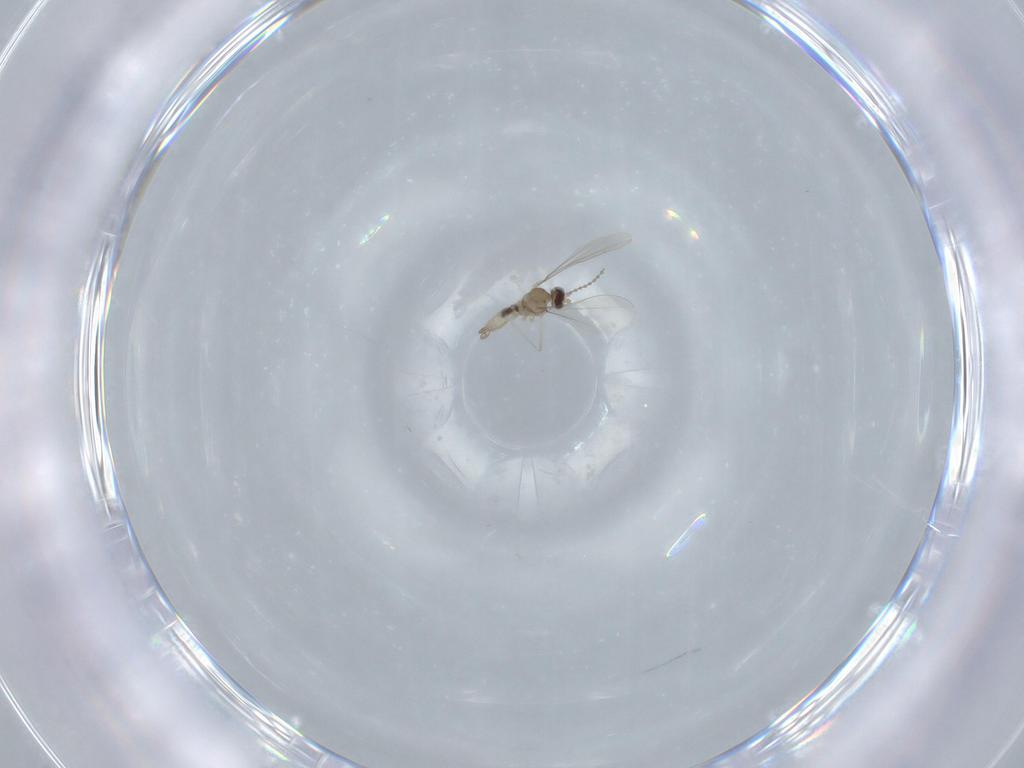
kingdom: Animalia
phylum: Arthropoda
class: Insecta
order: Diptera
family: Cecidomyiidae
